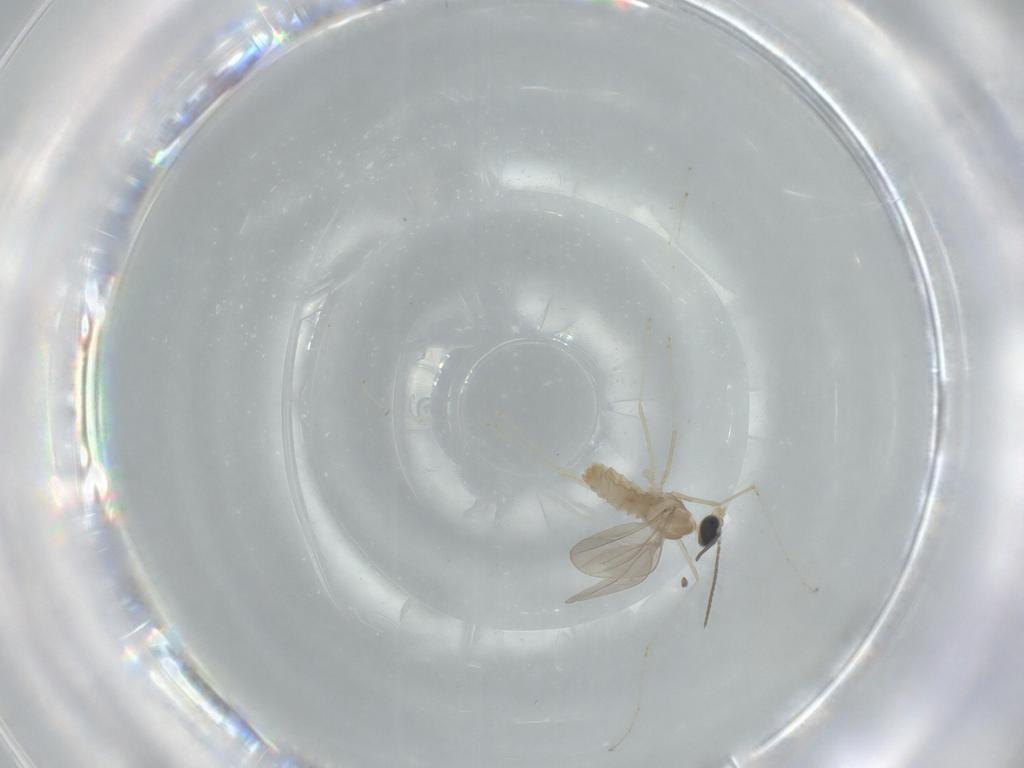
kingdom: Animalia
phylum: Arthropoda
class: Insecta
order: Diptera
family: Cecidomyiidae
